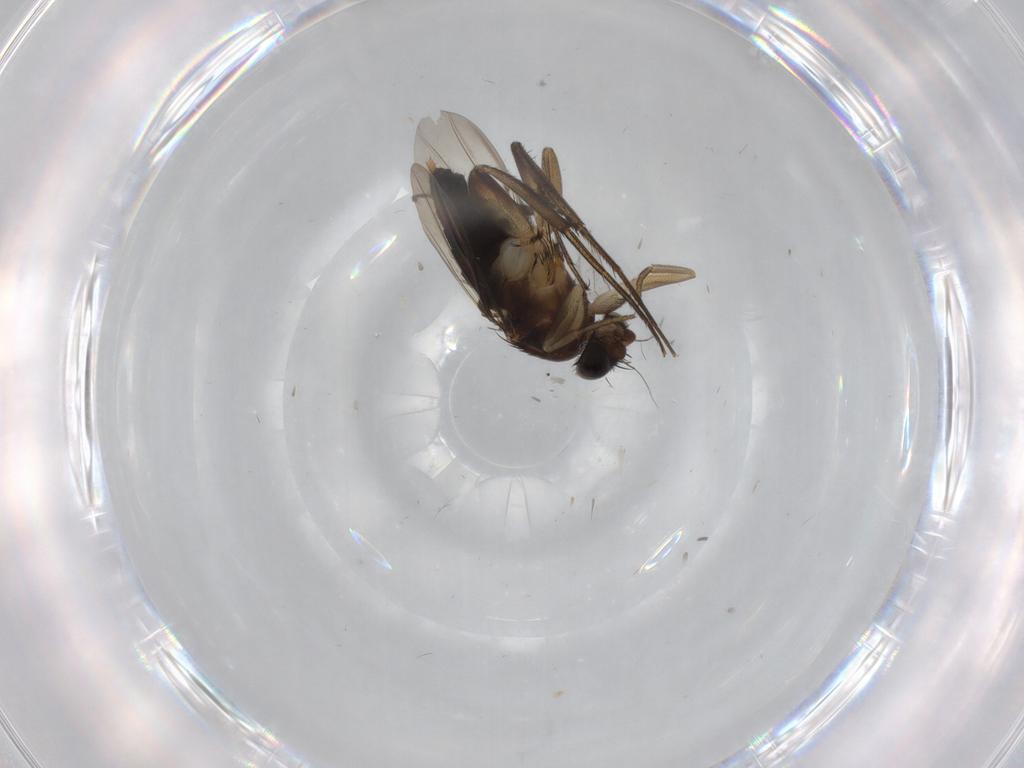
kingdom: Animalia
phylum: Arthropoda
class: Insecta
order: Diptera
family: Phoridae
